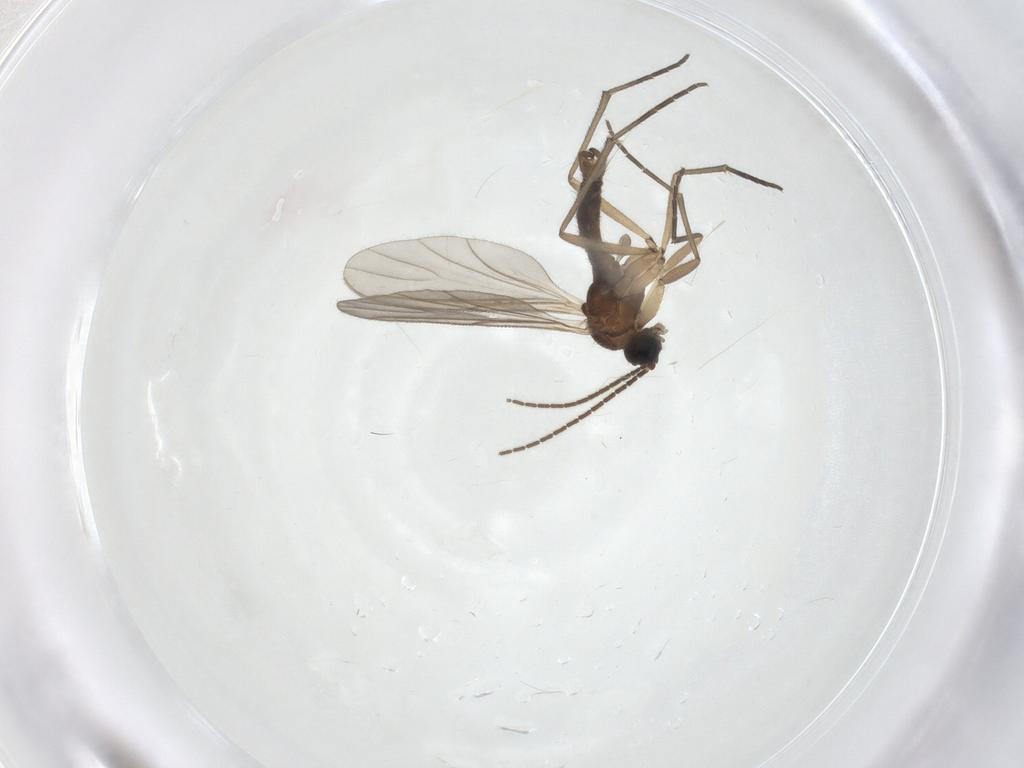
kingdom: Animalia
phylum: Arthropoda
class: Insecta
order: Diptera
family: Sciaridae
